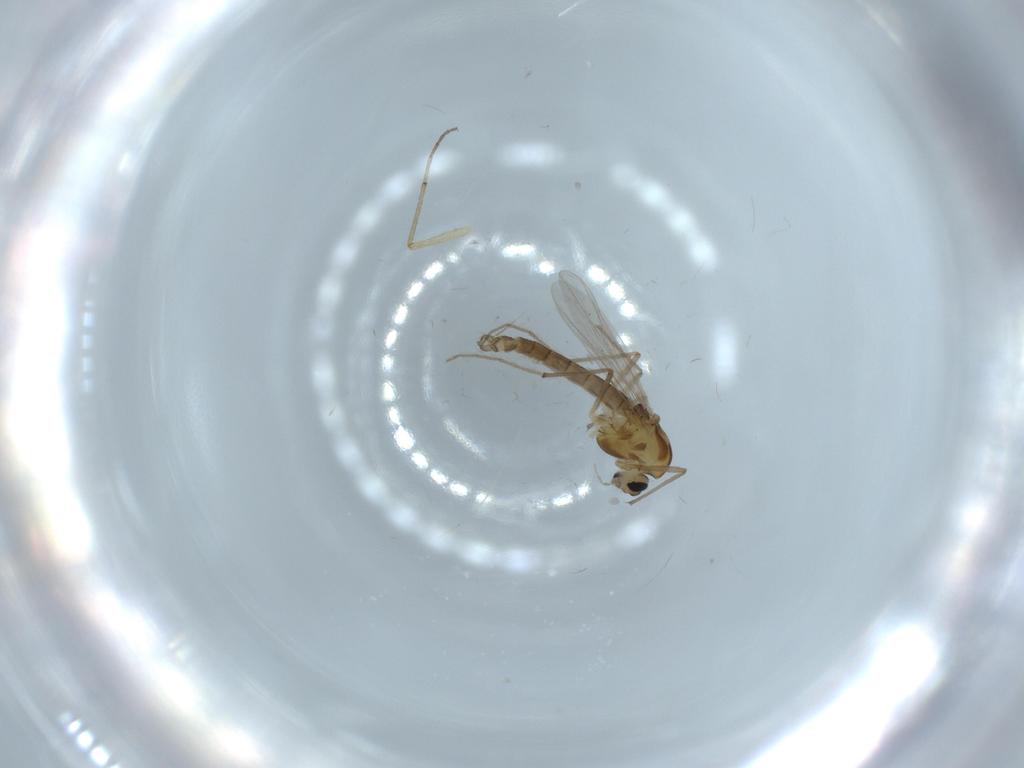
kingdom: Animalia
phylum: Arthropoda
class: Insecta
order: Diptera
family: Chironomidae
